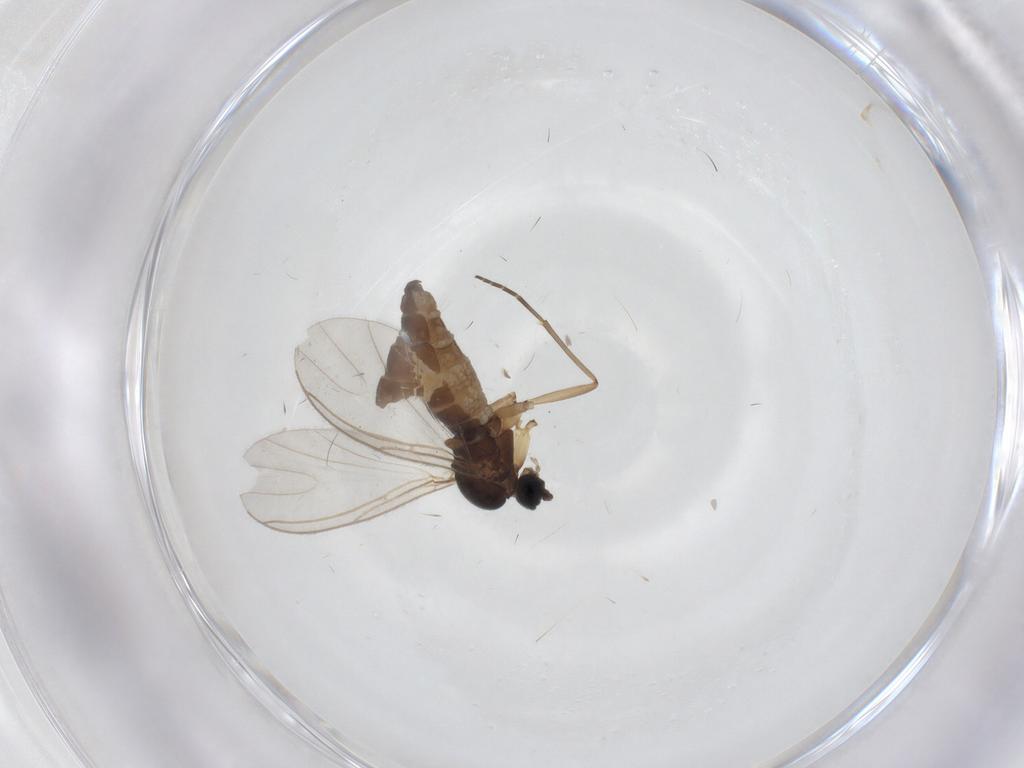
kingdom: Animalia
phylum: Arthropoda
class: Insecta
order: Diptera
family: Sciaridae
